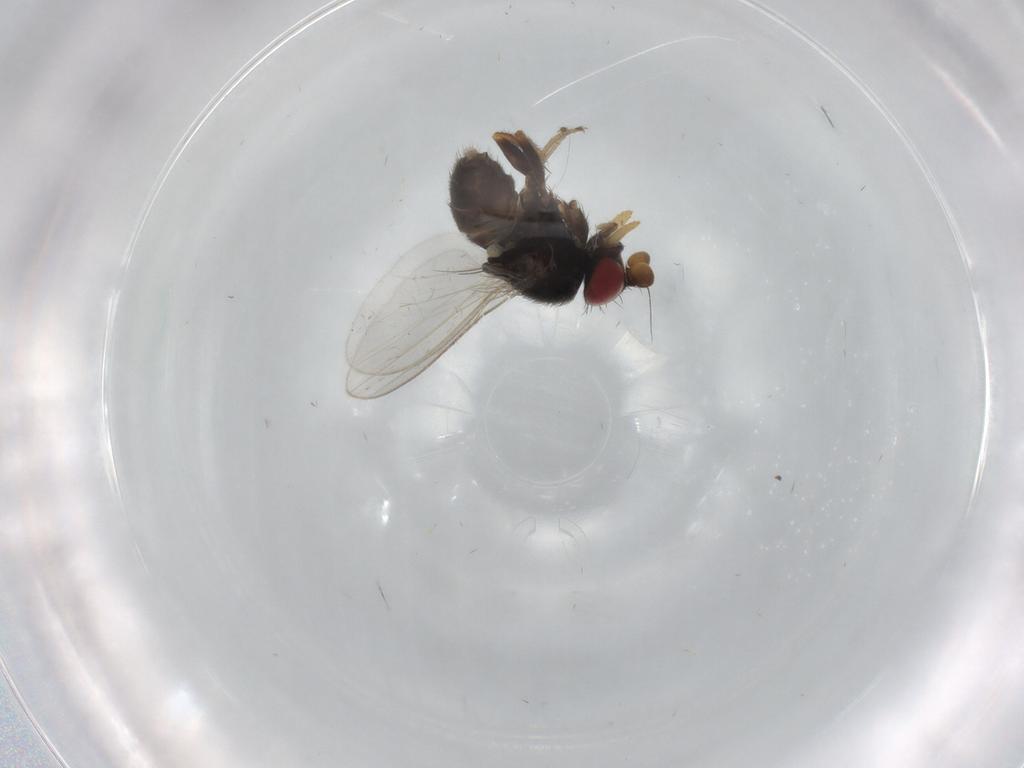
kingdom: Animalia
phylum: Arthropoda
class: Insecta
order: Diptera
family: Milichiidae
